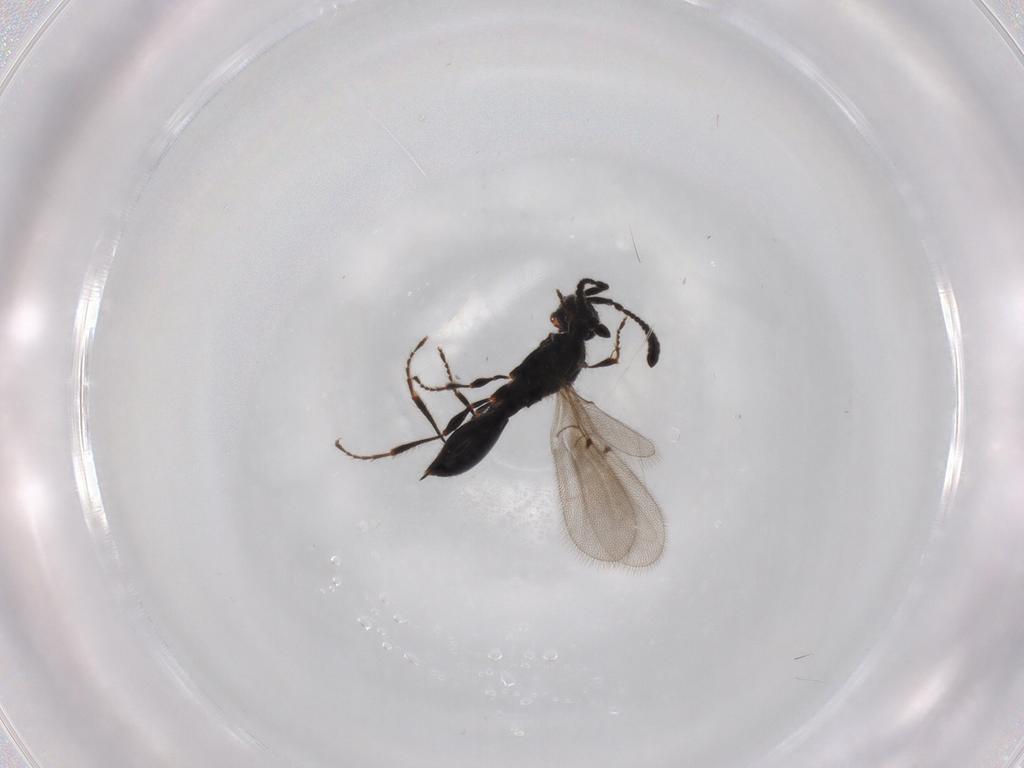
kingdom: Animalia
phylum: Arthropoda
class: Insecta
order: Hymenoptera
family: Diapriidae
